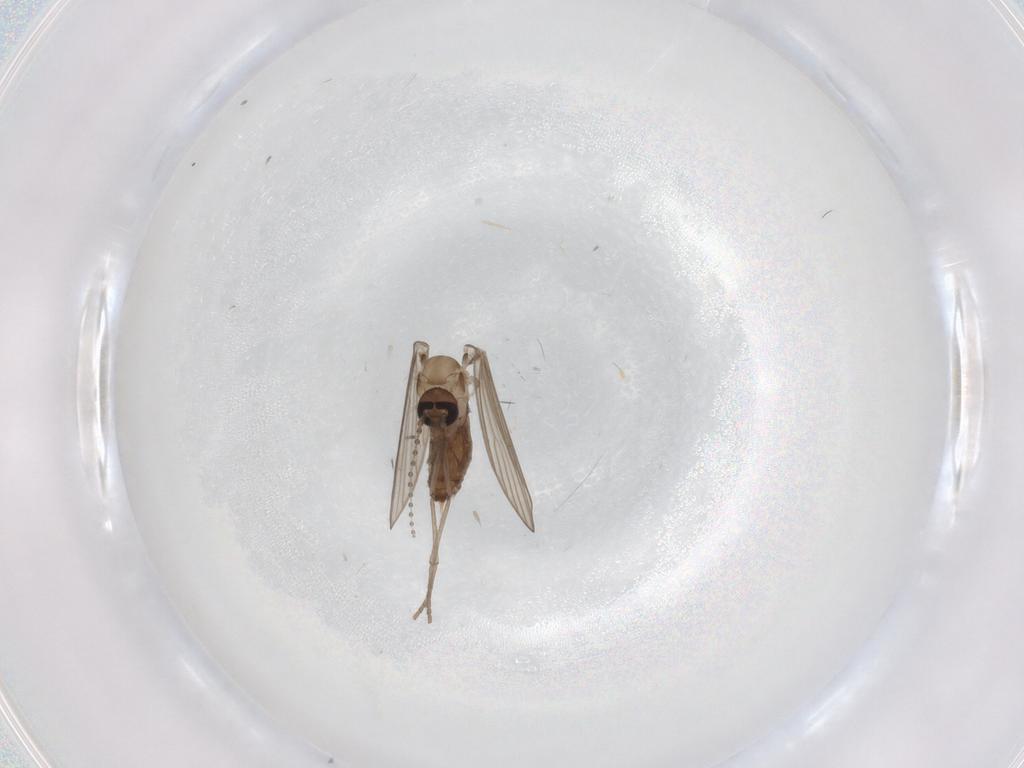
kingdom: Animalia
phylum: Arthropoda
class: Insecta
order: Diptera
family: Psychodidae
